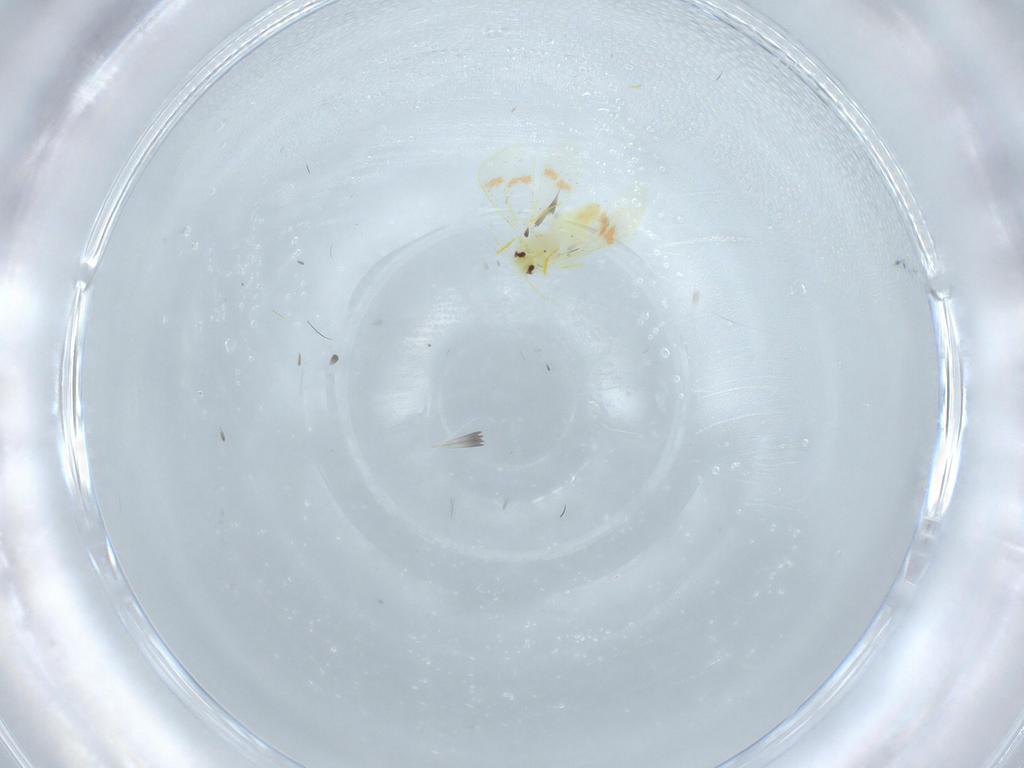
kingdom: Animalia
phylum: Arthropoda
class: Insecta
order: Hemiptera
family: Aleyrodidae
